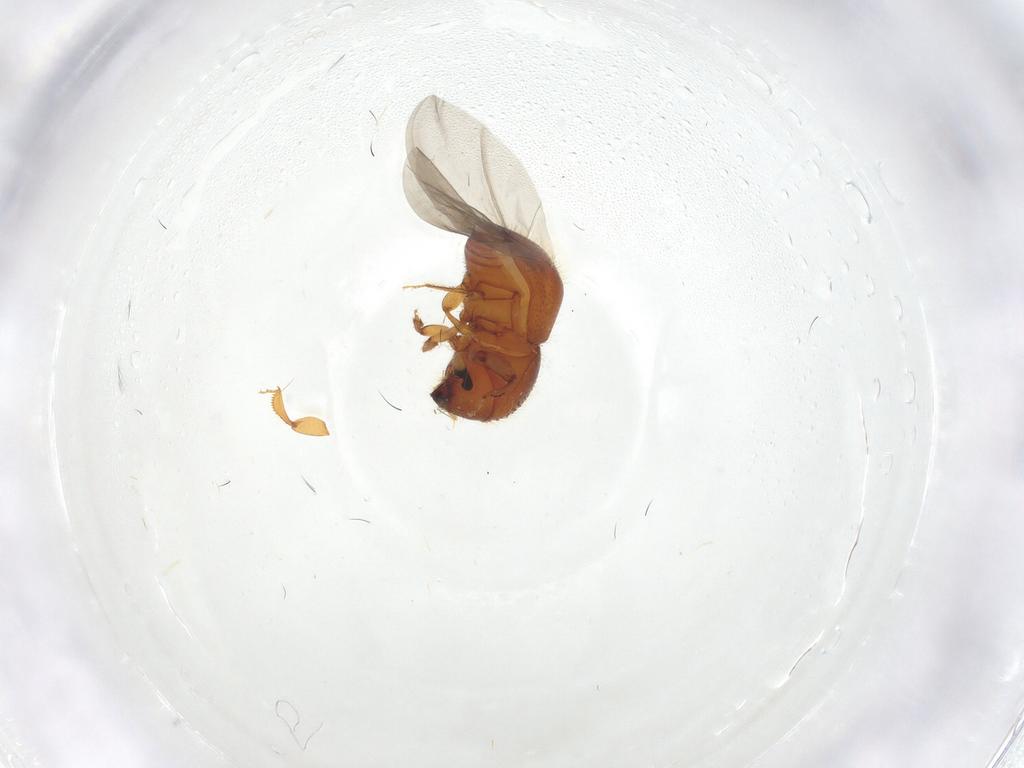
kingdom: Animalia
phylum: Arthropoda
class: Insecta
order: Coleoptera
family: Curculionidae
